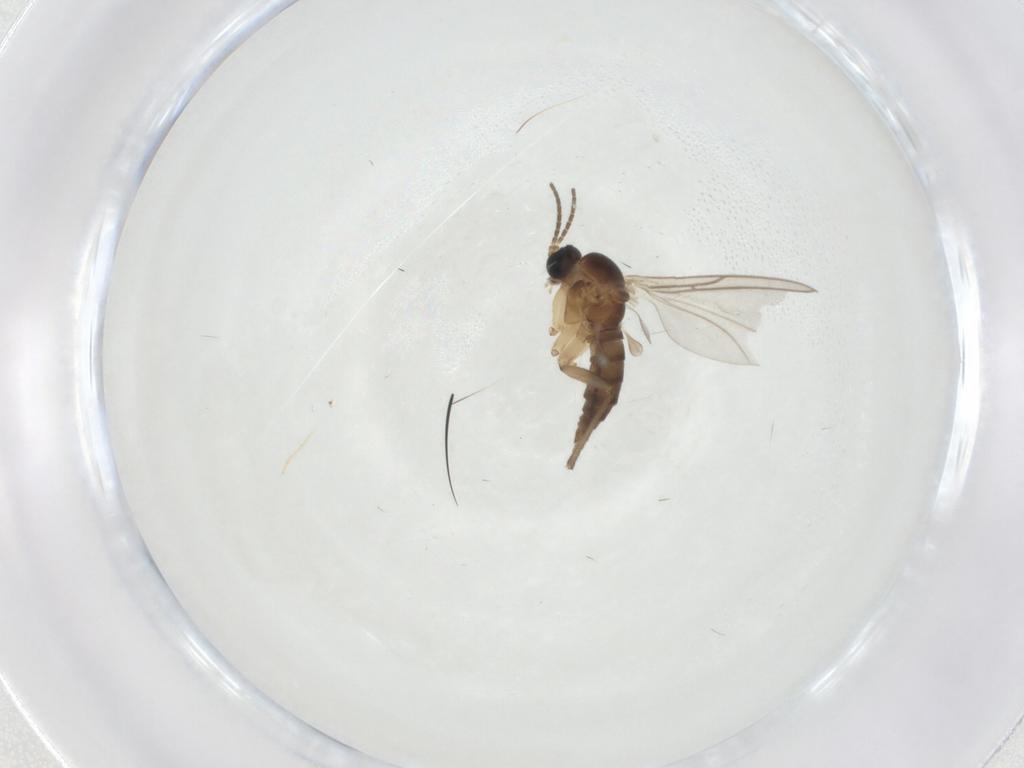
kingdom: Animalia
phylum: Arthropoda
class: Insecta
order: Diptera
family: Sciaridae
